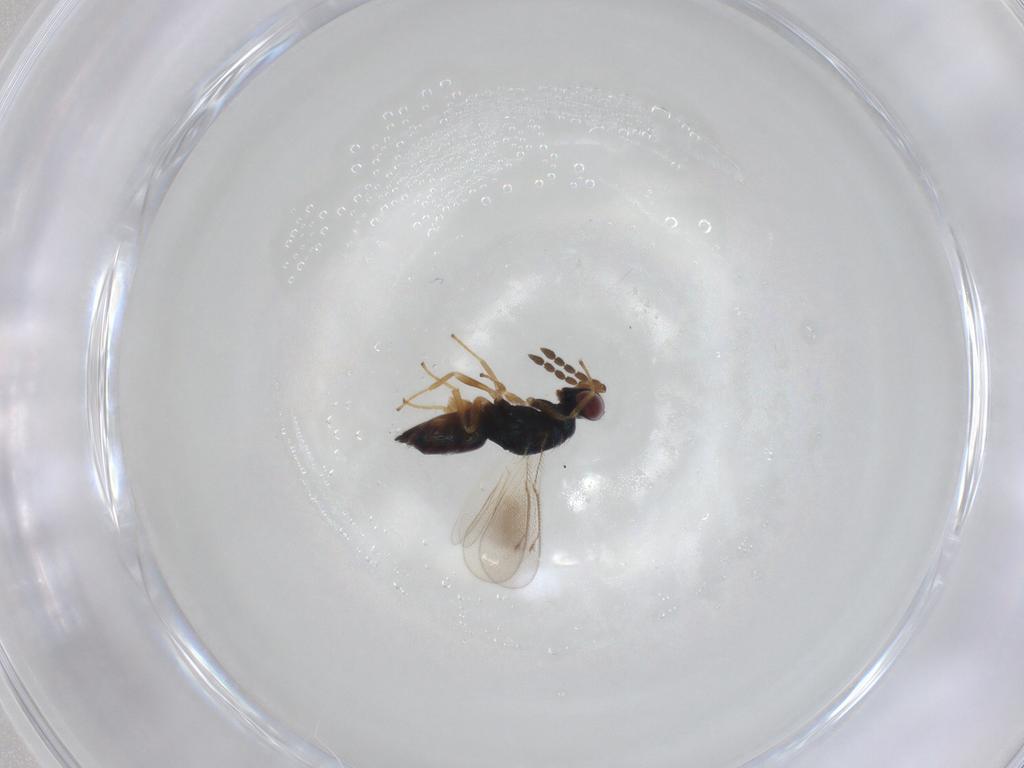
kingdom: Animalia
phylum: Arthropoda
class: Insecta
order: Hymenoptera
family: Eulophidae
